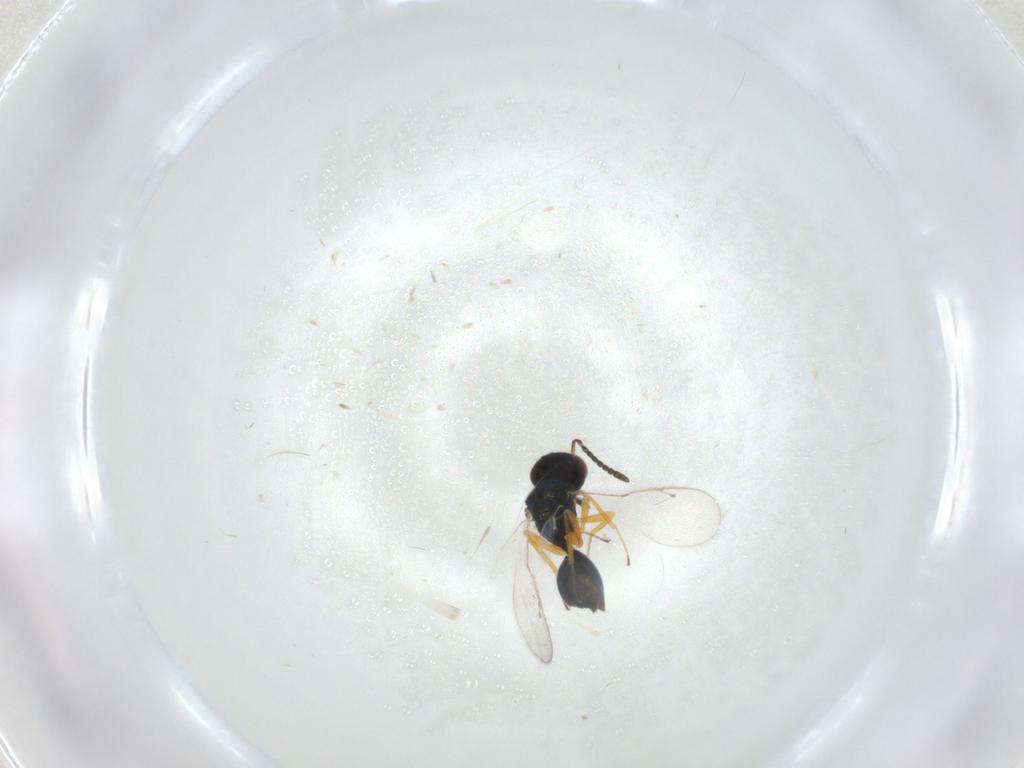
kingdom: Animalia
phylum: Arthropoda
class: Insecta
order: Hymenoptera
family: Pteromalidae
